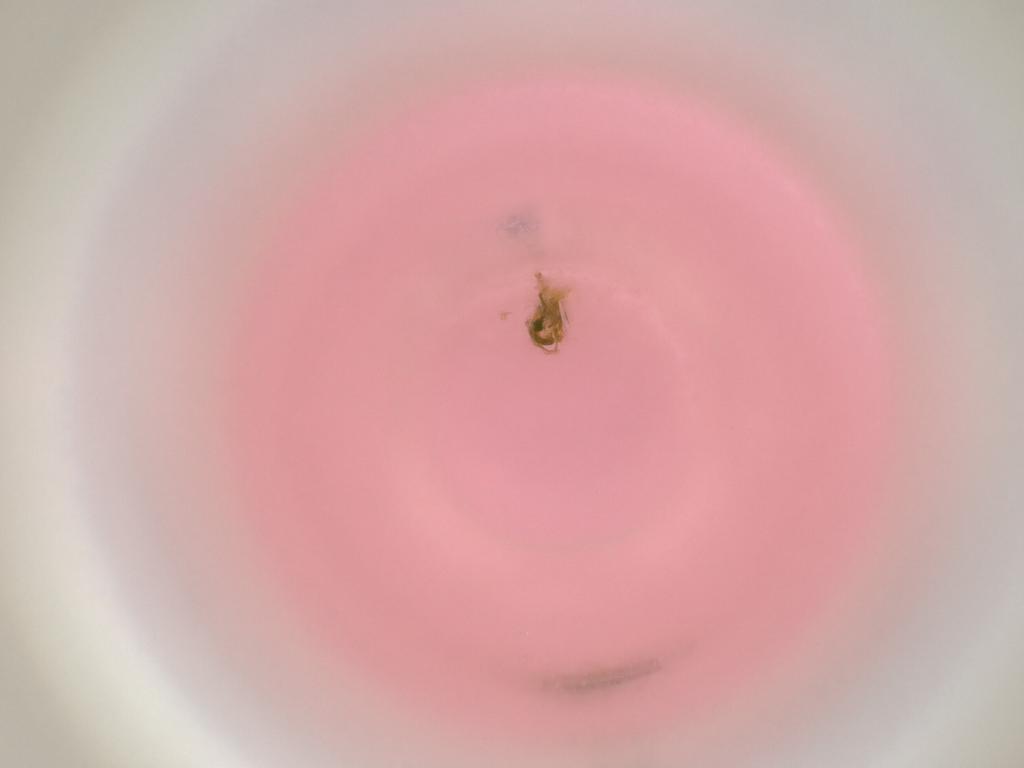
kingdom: Animalia
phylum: Arthropoda
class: Insecta
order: Diptera
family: Cecidomyiidae
